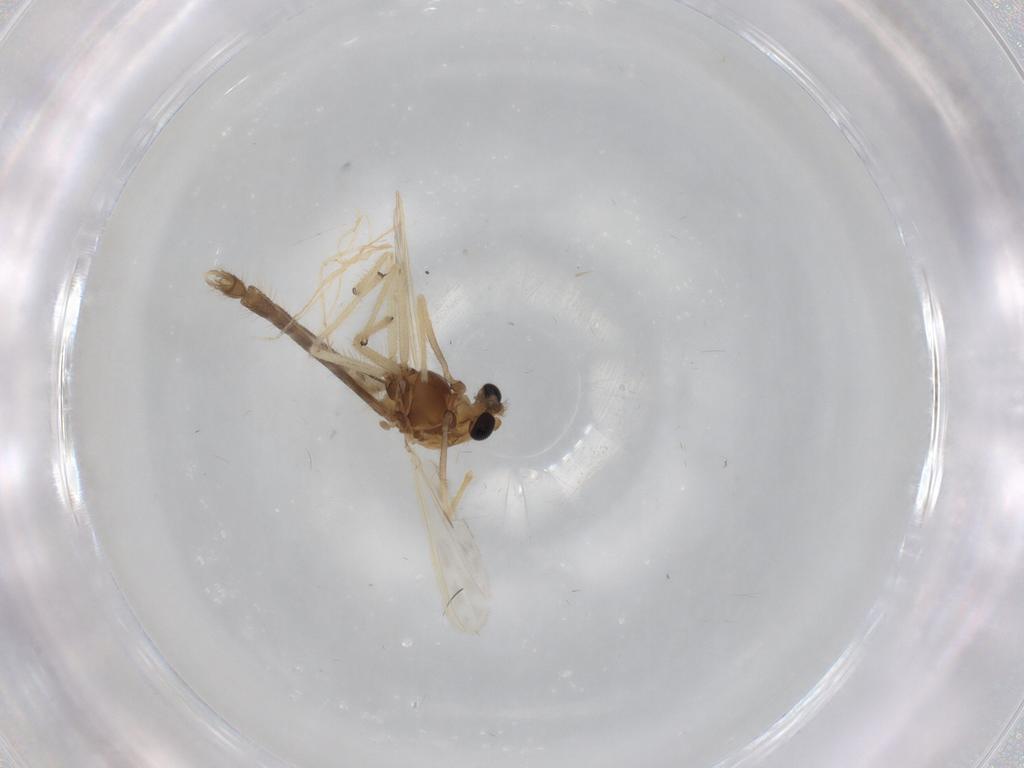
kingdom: Animalia
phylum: Arthropoda
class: Insecta
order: Diptera
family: Chironomidae
